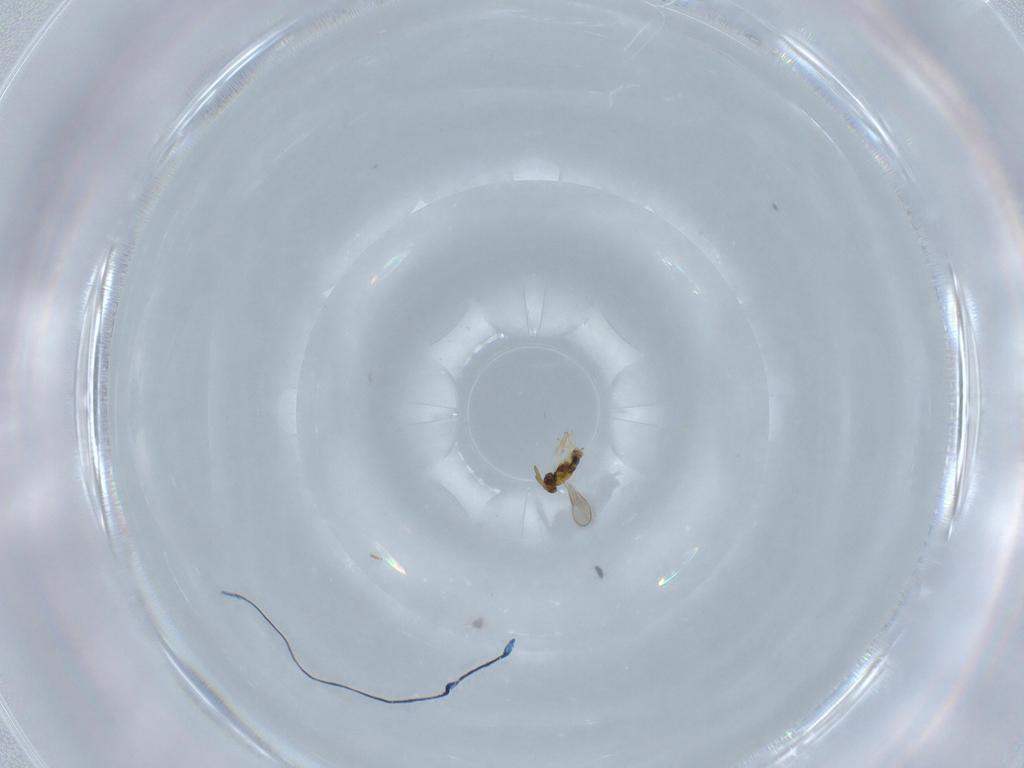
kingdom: Animalia
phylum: Arthropoda
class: Insecta
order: Hymenoptera
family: Aphelinidae
